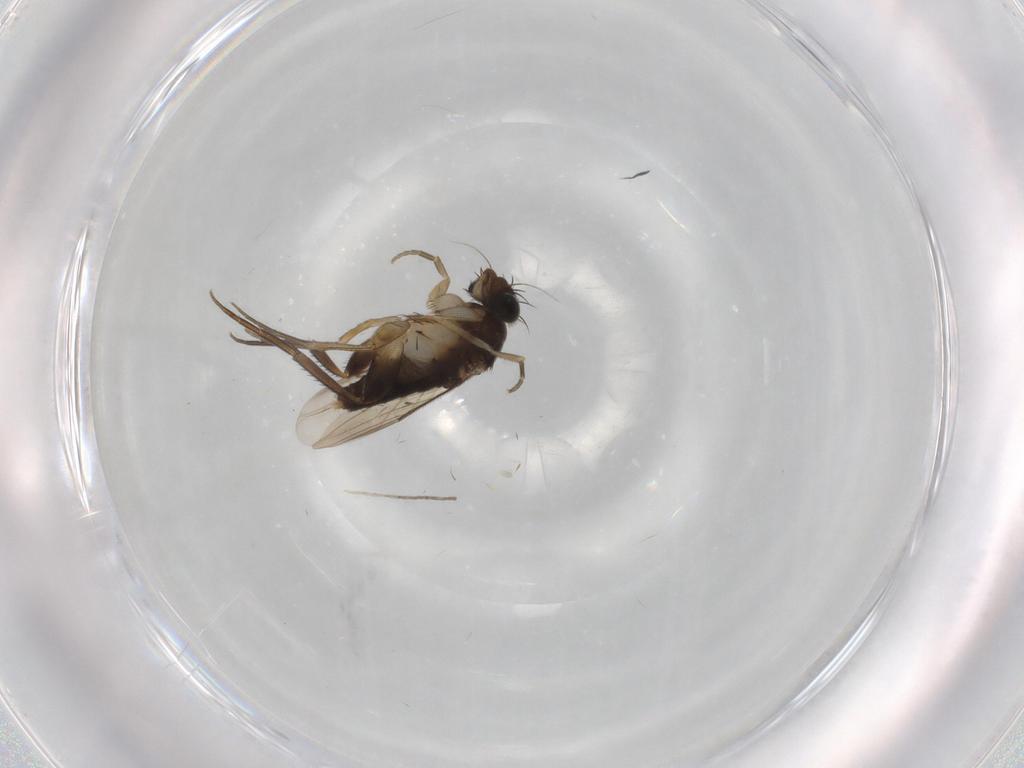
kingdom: Animalia
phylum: Arthropoda
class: Insecta
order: Diptera
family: Phoridae
